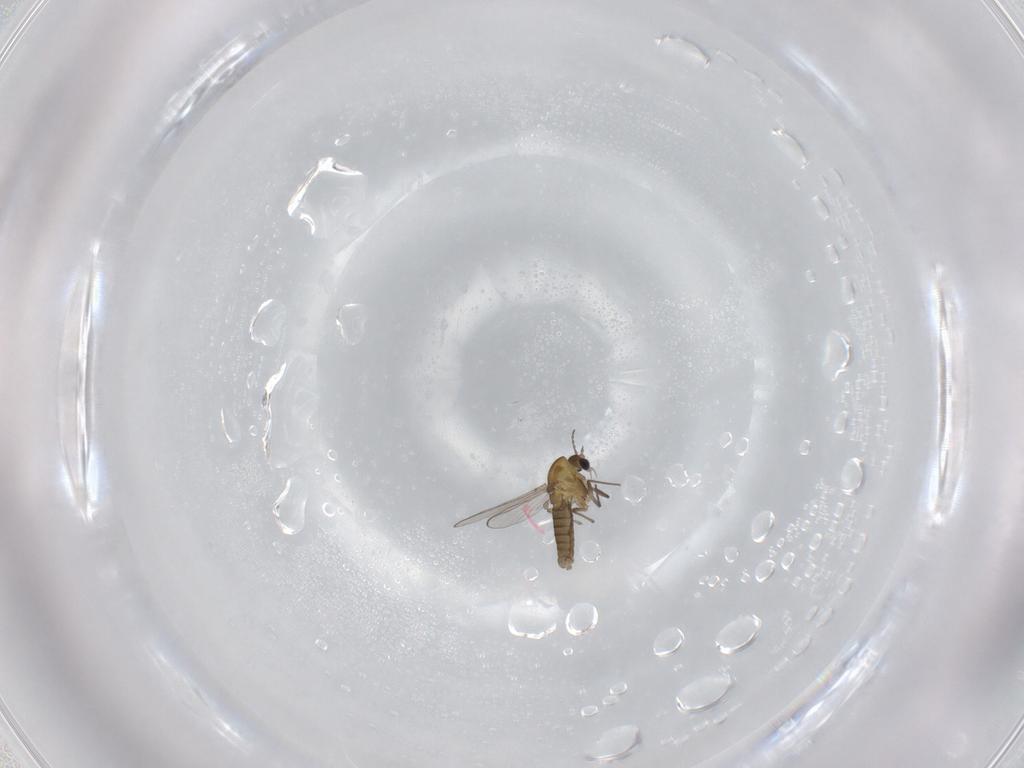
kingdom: Animalia
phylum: Arthropoda
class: Insecta
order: Diptera
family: Chironomidae
